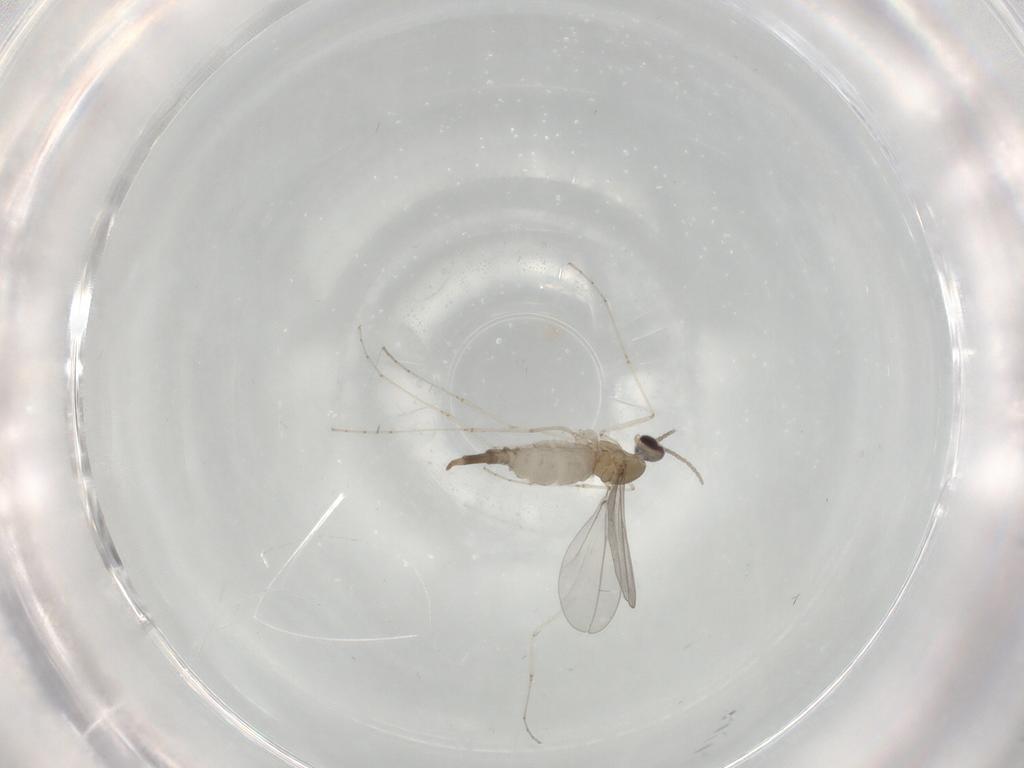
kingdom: Animalia
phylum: Arthropoda
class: Insecta
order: Diptera
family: Cecidomyiidae
